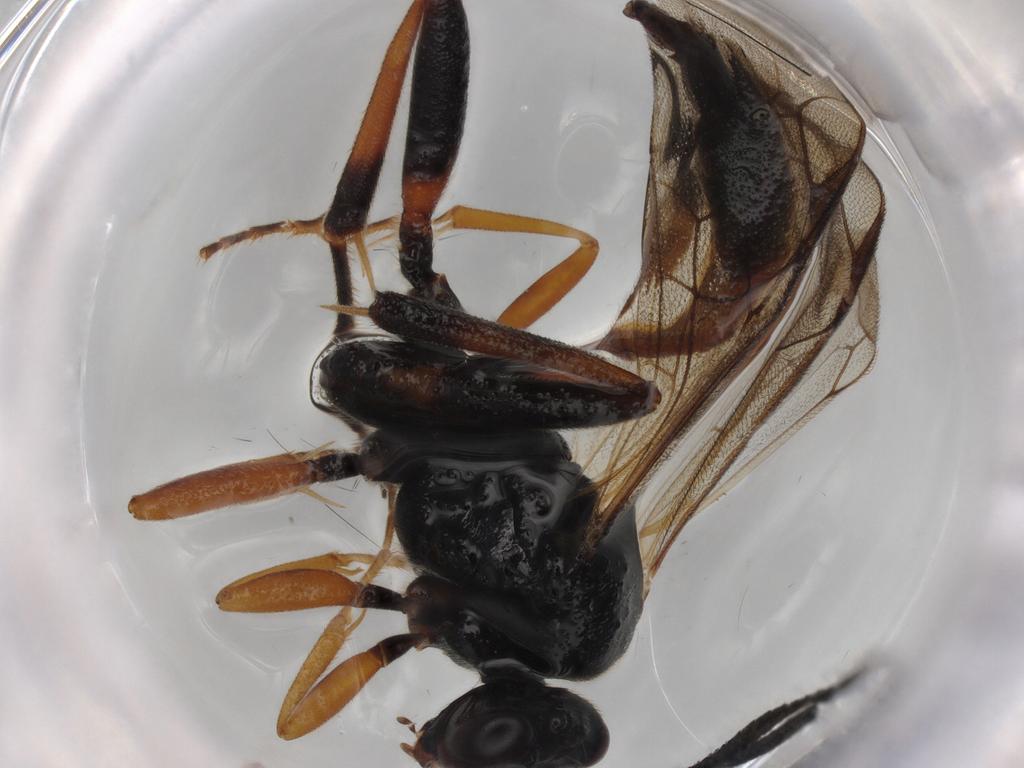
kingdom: Animalia
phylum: Arthropoda
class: Insecta
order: Hymenoptera
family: Ichneumonidae
